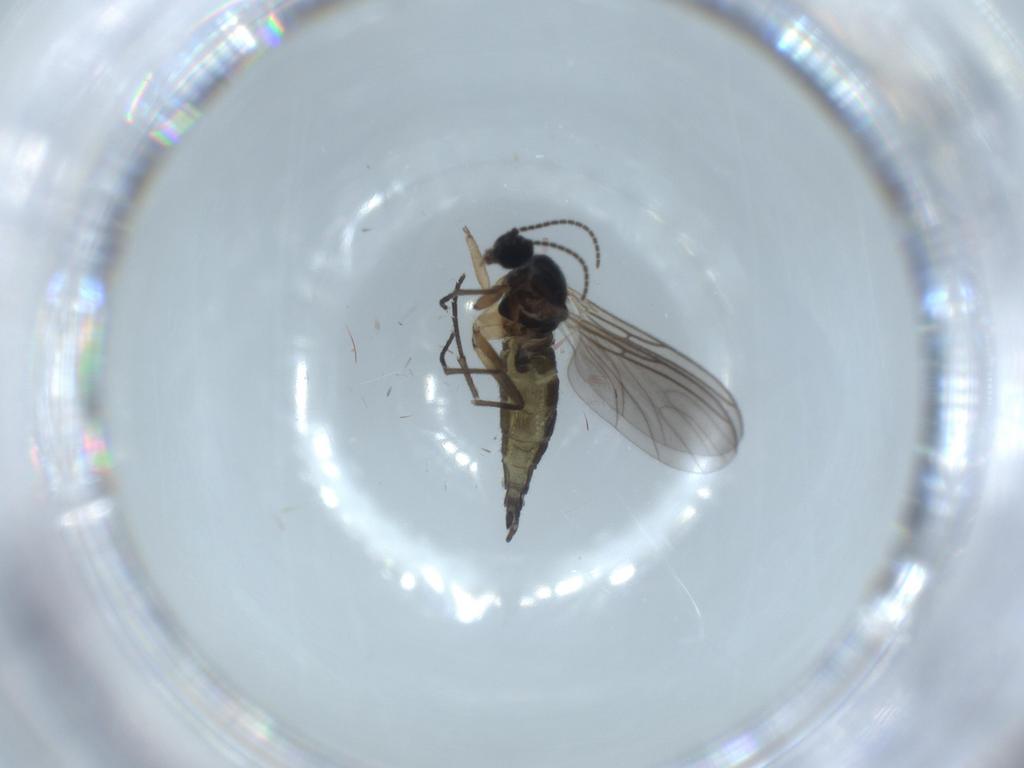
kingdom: Animalia
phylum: Arthropoda
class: Insecta
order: Diptera
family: Sciaridae
